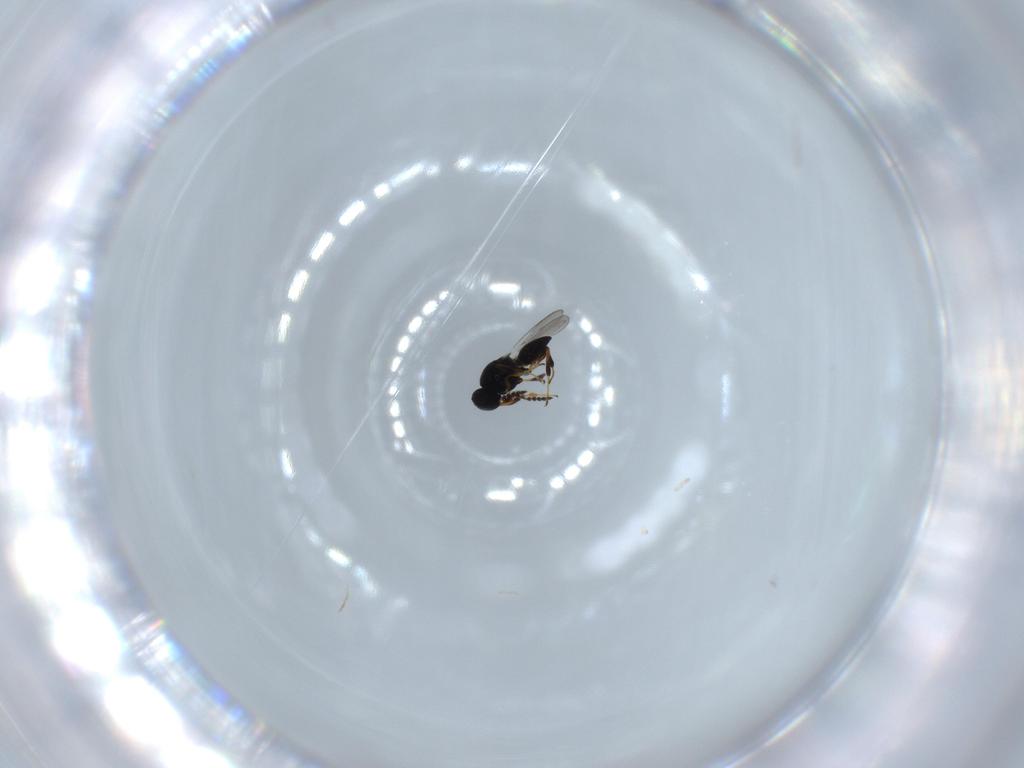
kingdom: Animalia
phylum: Arthropoda
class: Insecta
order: Hymenoptera
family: Platygastridae
